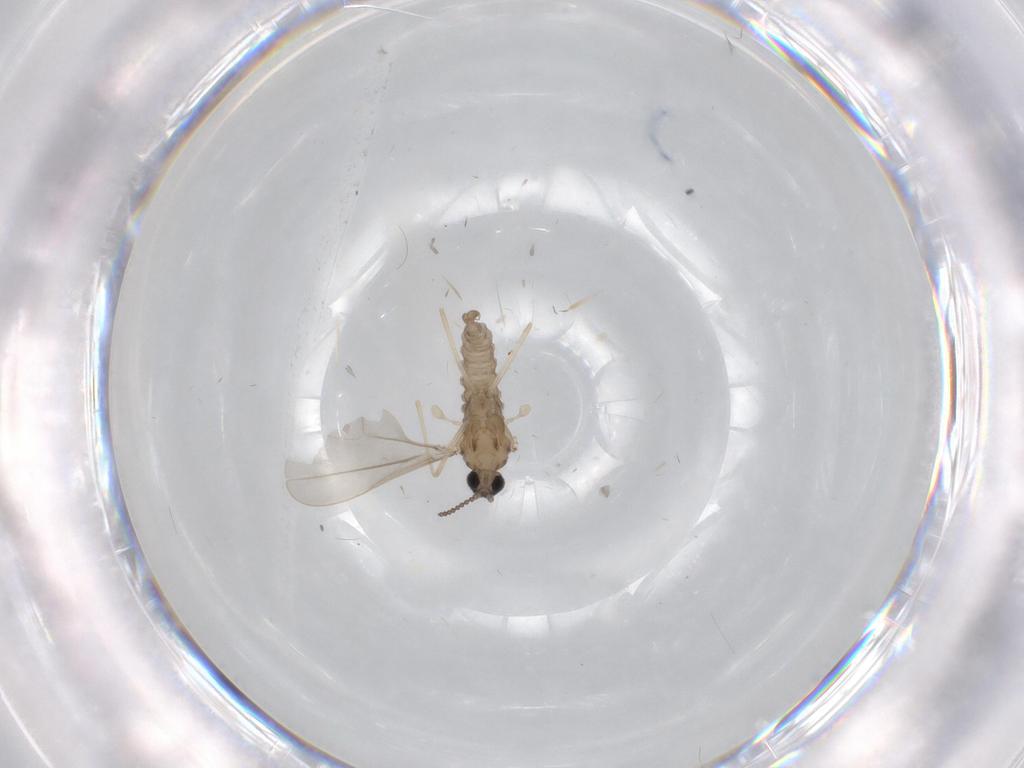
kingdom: Animalia
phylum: Arthropoda
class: Insecta
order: Diptera
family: Cecidomyiidae
